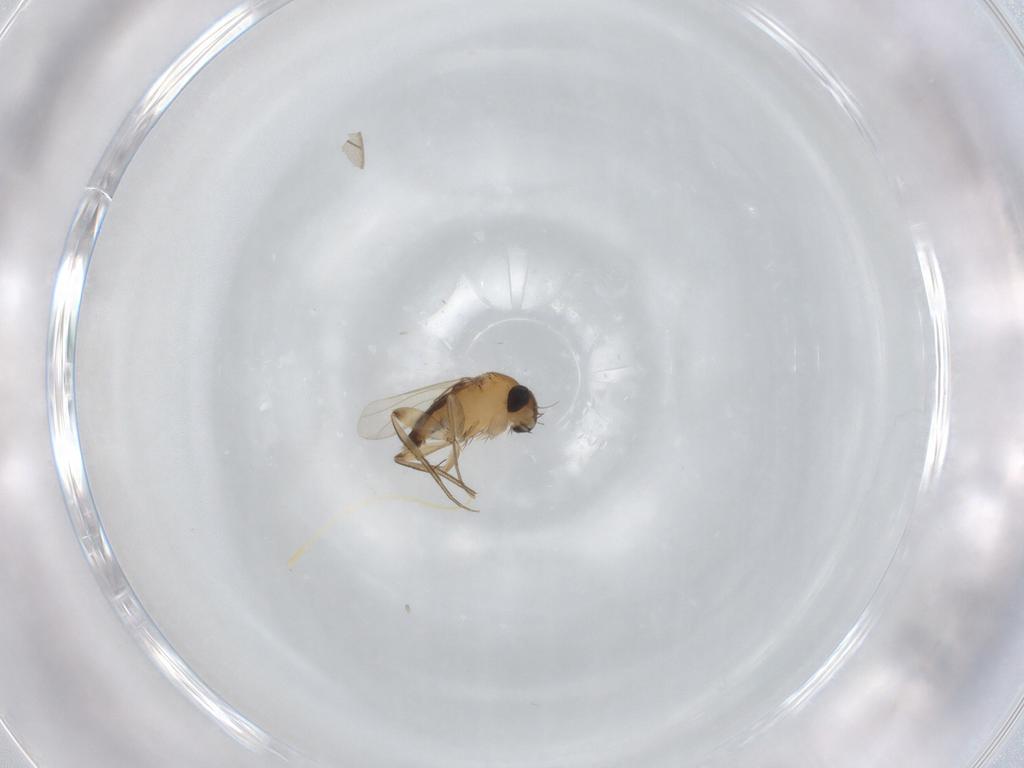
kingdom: Animalia
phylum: Arthropoda
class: Insecta
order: Diptera
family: Phoridae
